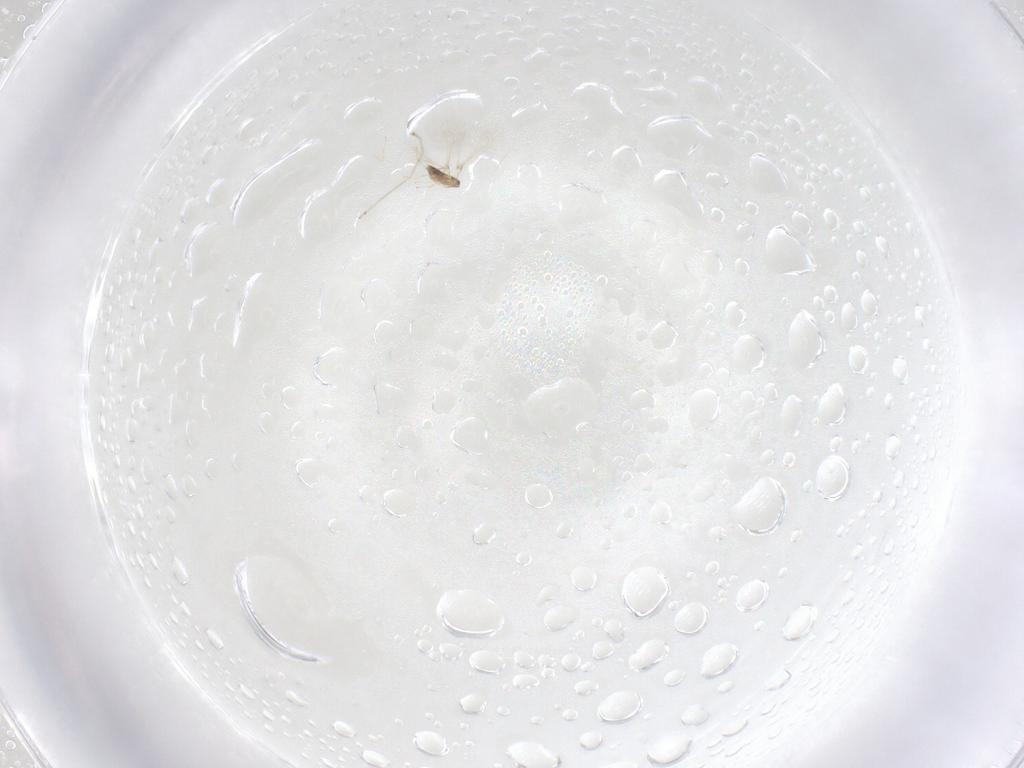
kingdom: Animalia
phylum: Arthropoda
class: Insecta
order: Diptera
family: Cecidomyiidae
